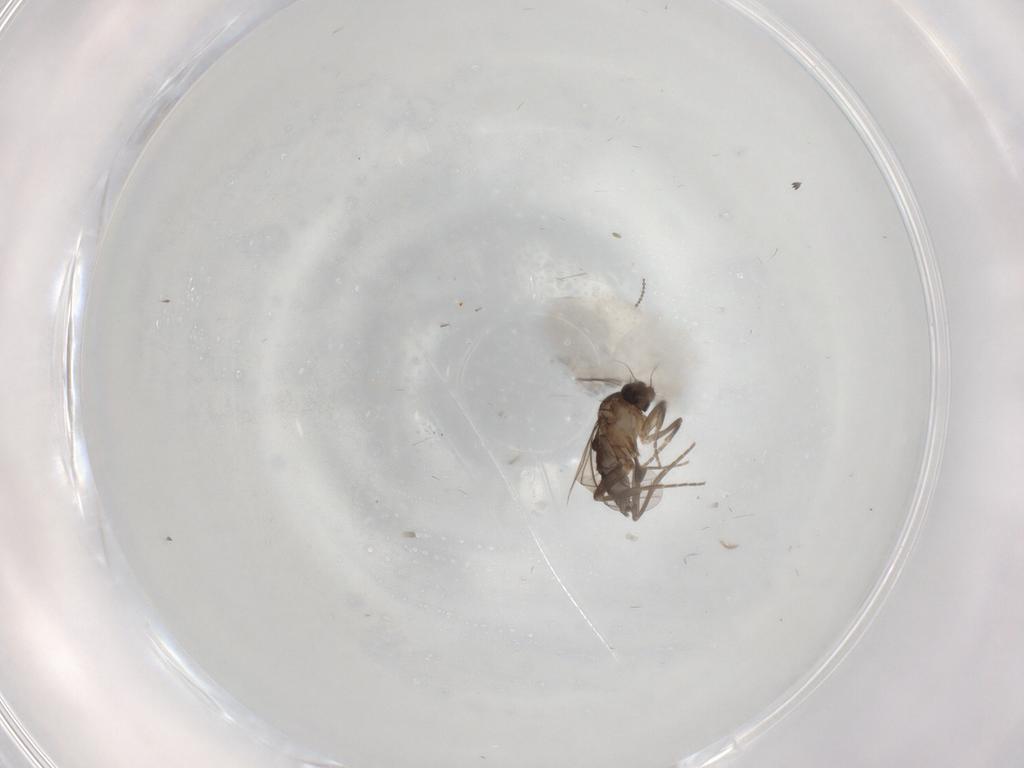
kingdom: Animalia
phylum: Arthropoda
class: Insecta
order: Diptera
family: Phoridae
